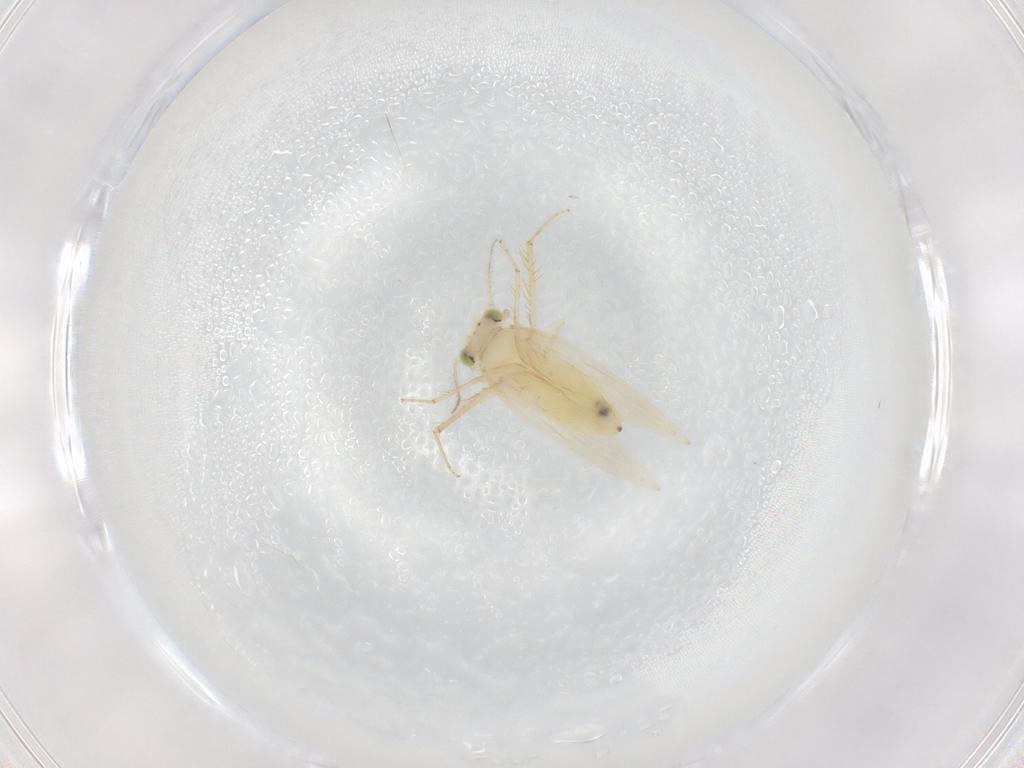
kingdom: Animalia
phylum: Arthropoda
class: Insecta
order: Psocodea
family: Lepidopsocidae
